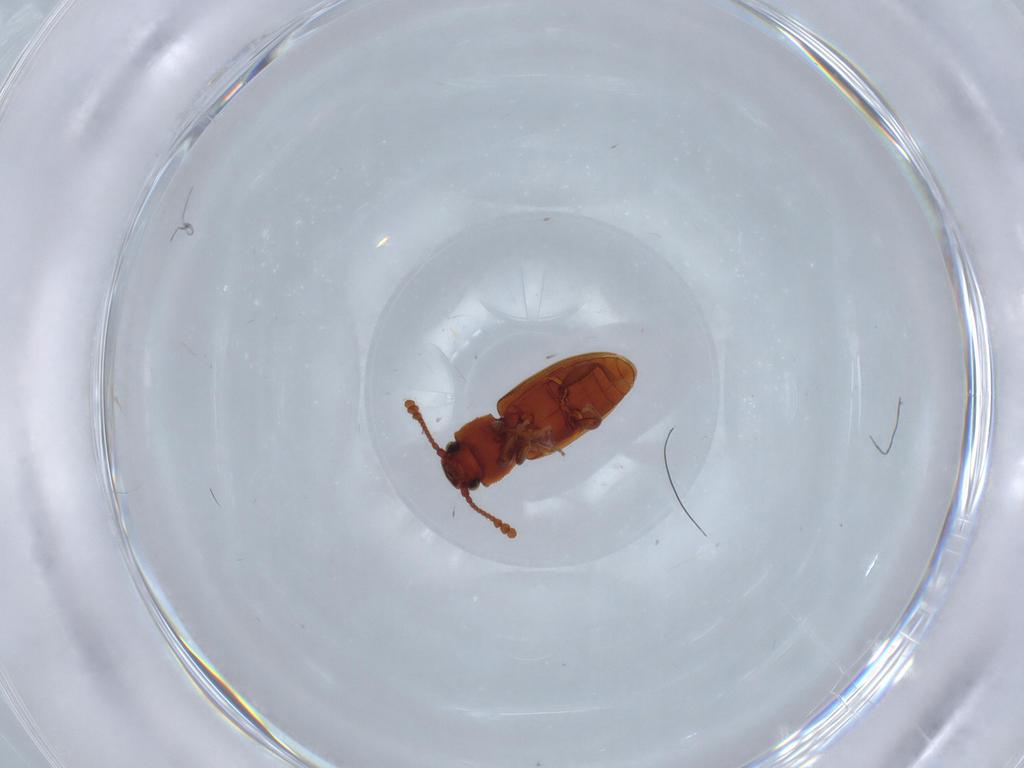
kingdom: Animalia
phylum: Arthropoda
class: Insecta
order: Coleoptera
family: Silvanidae
